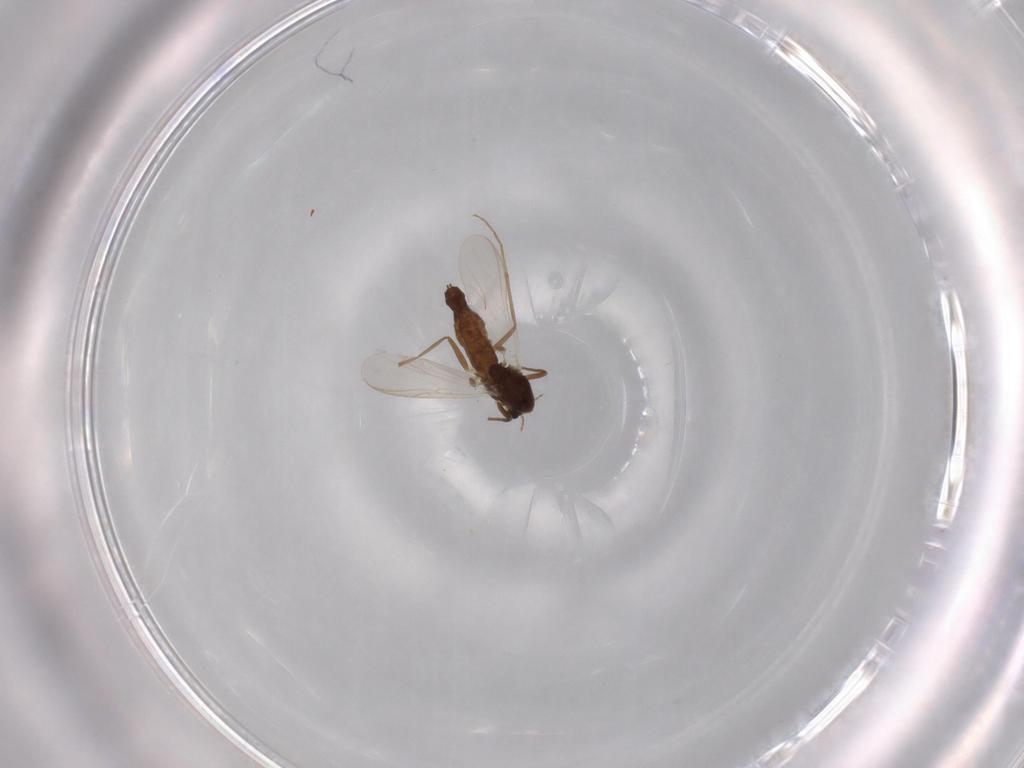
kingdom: Animalia
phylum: Arthropoda
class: Insecta
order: Diptera
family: Chironomidae
